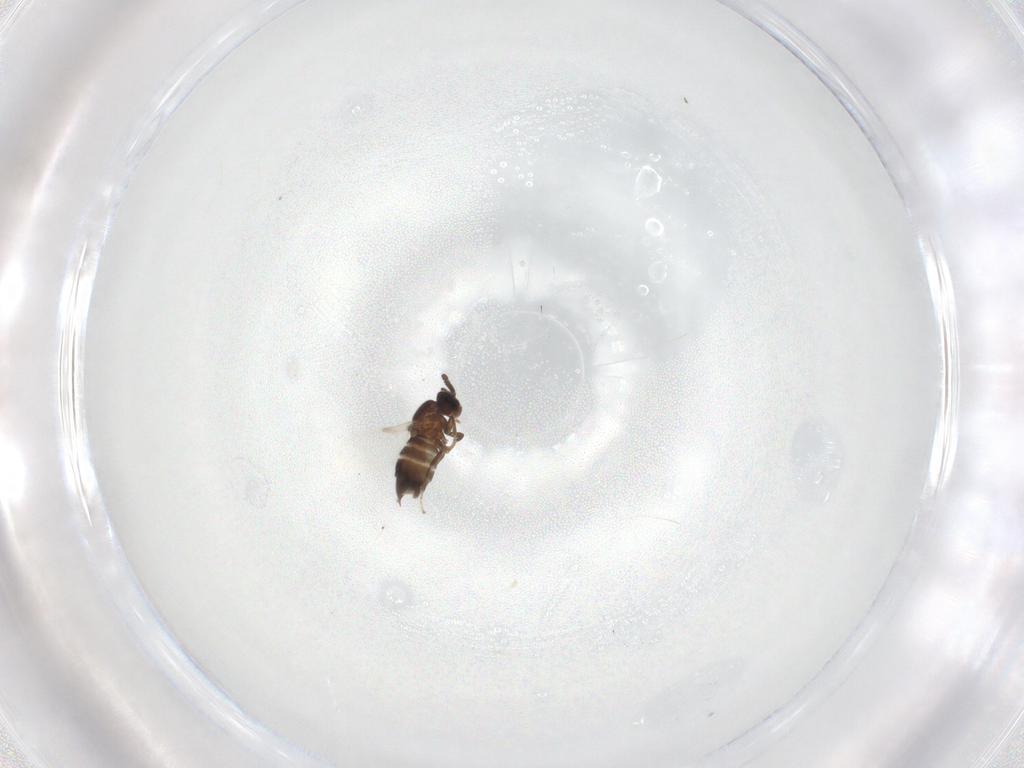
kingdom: Animalia
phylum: Arthropoda
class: Insecta
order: Diptera
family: Scatopsidae
